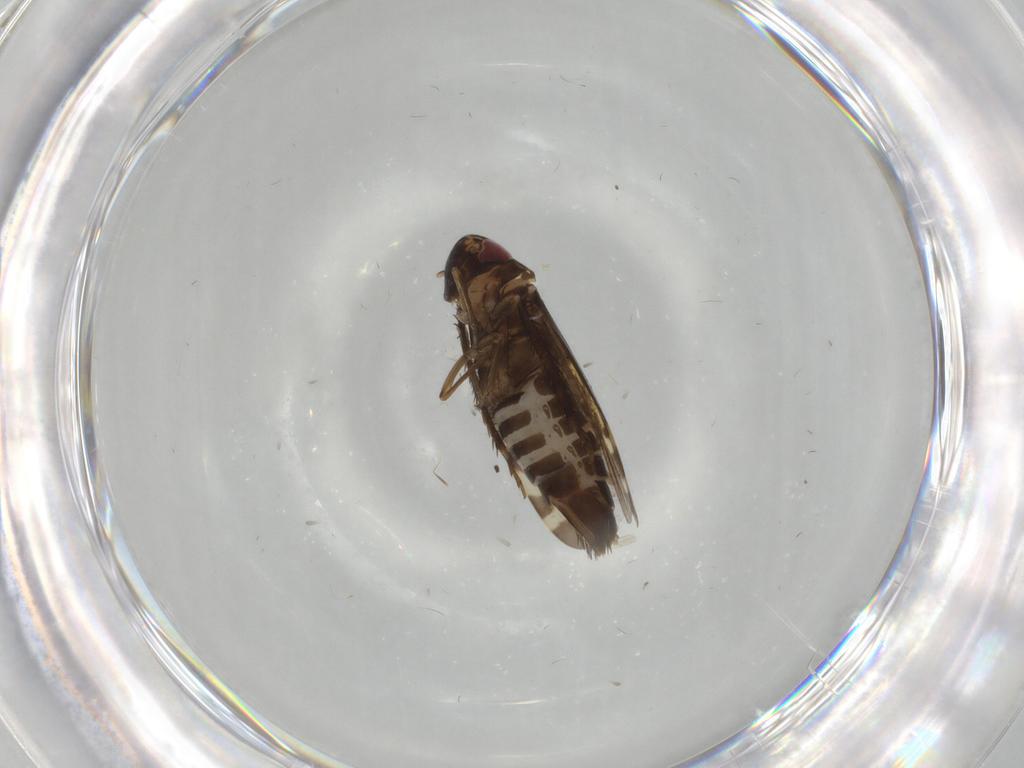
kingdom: Animalia
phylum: Arthropoda
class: Insecta
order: Hemiptera
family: Cicadellidae
